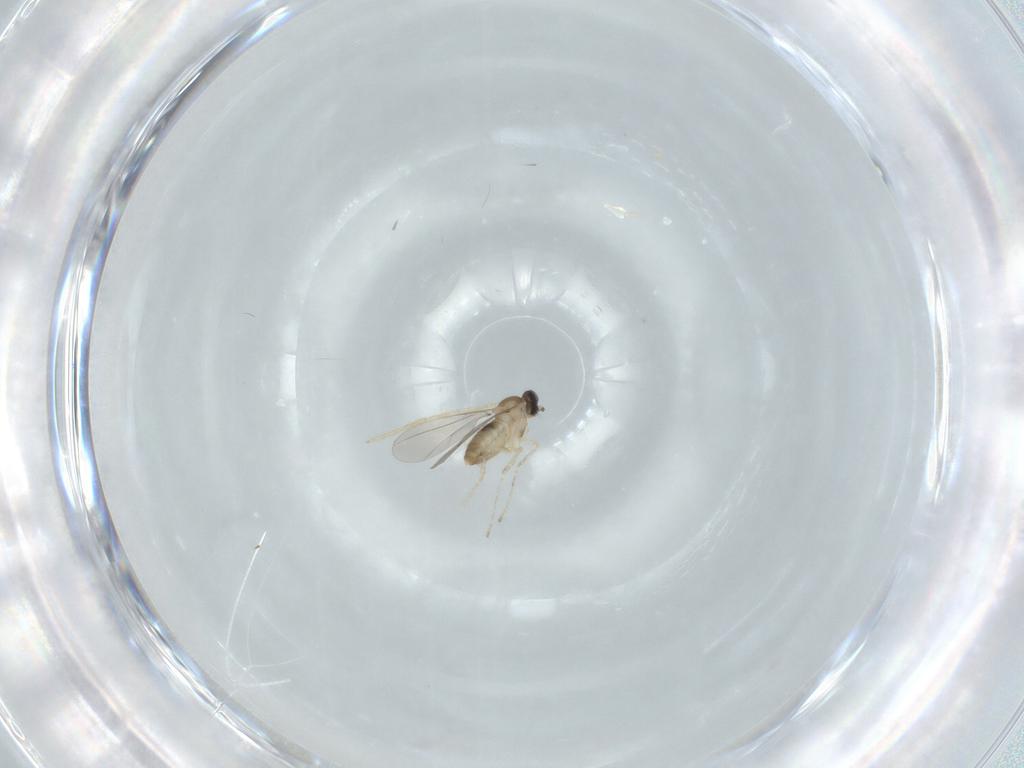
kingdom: Animalia
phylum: Arthropoda
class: Insecta
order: Diptera
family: Cecidomyiidae
